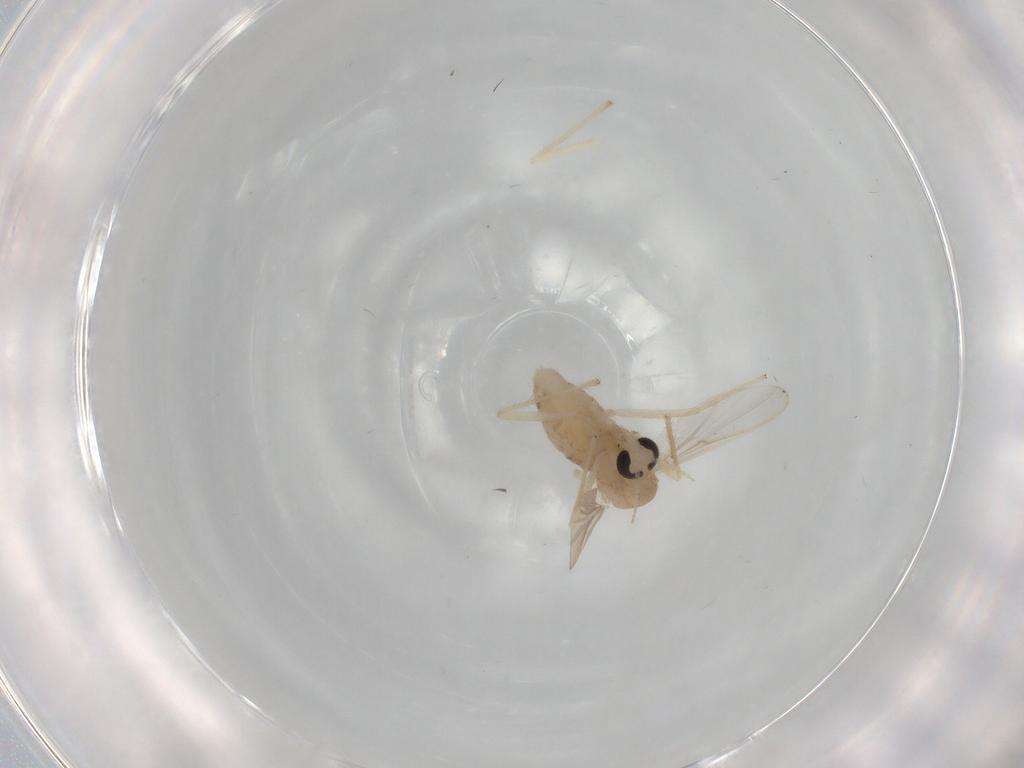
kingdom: Animalia
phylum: Arthropoda
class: Insecta
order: Diptera
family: Chironomidae
